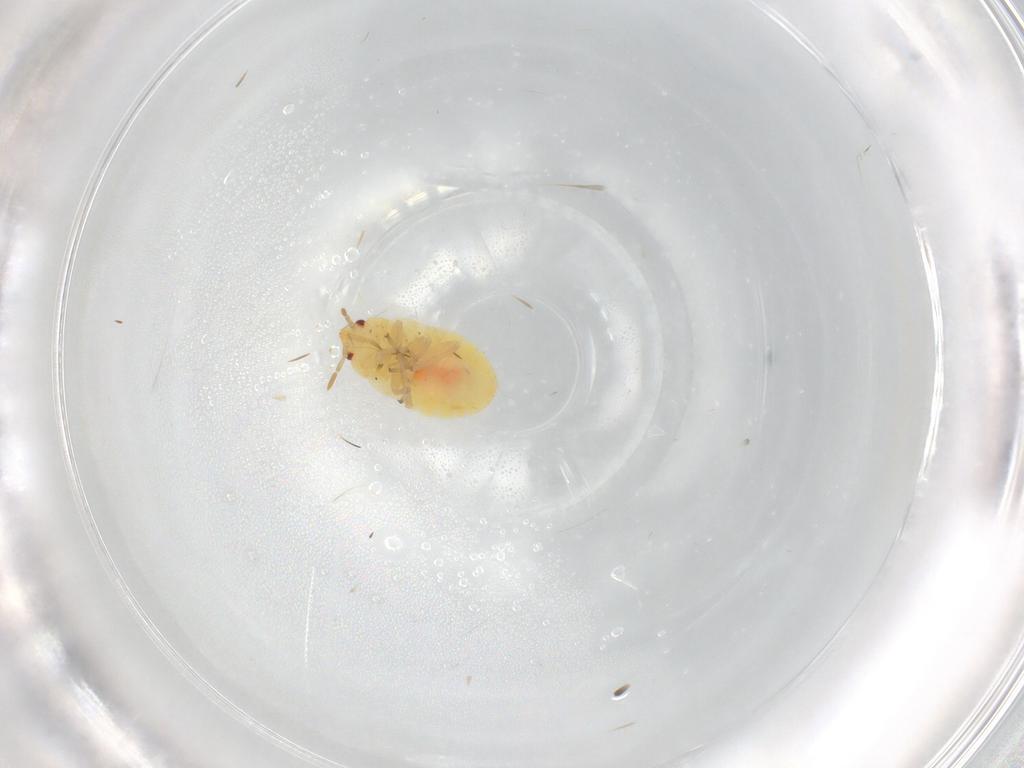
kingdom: Animalia
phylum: Arthropoda
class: Insecta
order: Hemiptera
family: Anthocoridae
